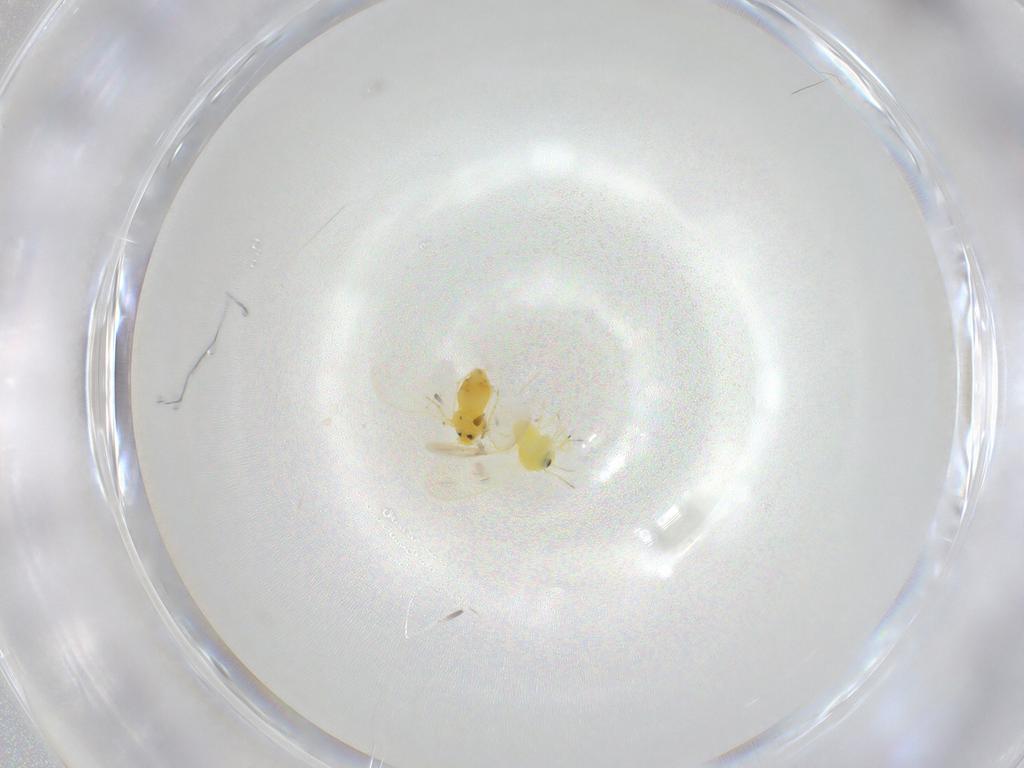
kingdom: Animalia
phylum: Arthropoda
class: Insecta
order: Hemiptera
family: Aleyrodidae
